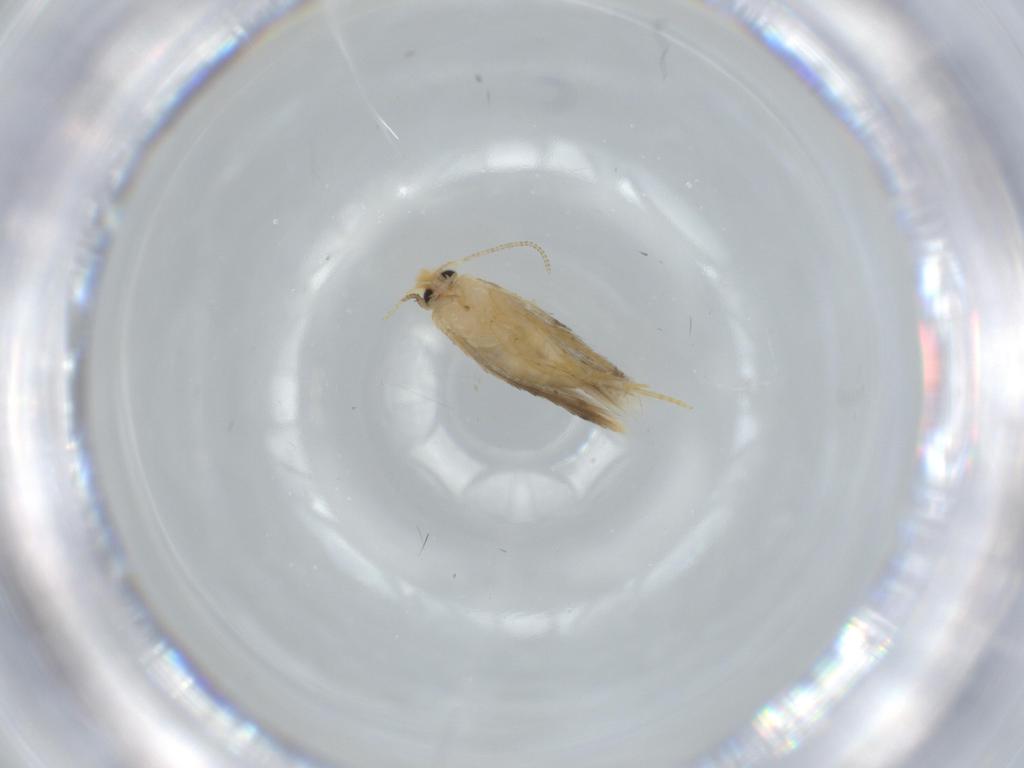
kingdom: Animalia
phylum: Arthropoda
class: Insecta
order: Lepidoptera
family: Nepticulidae
